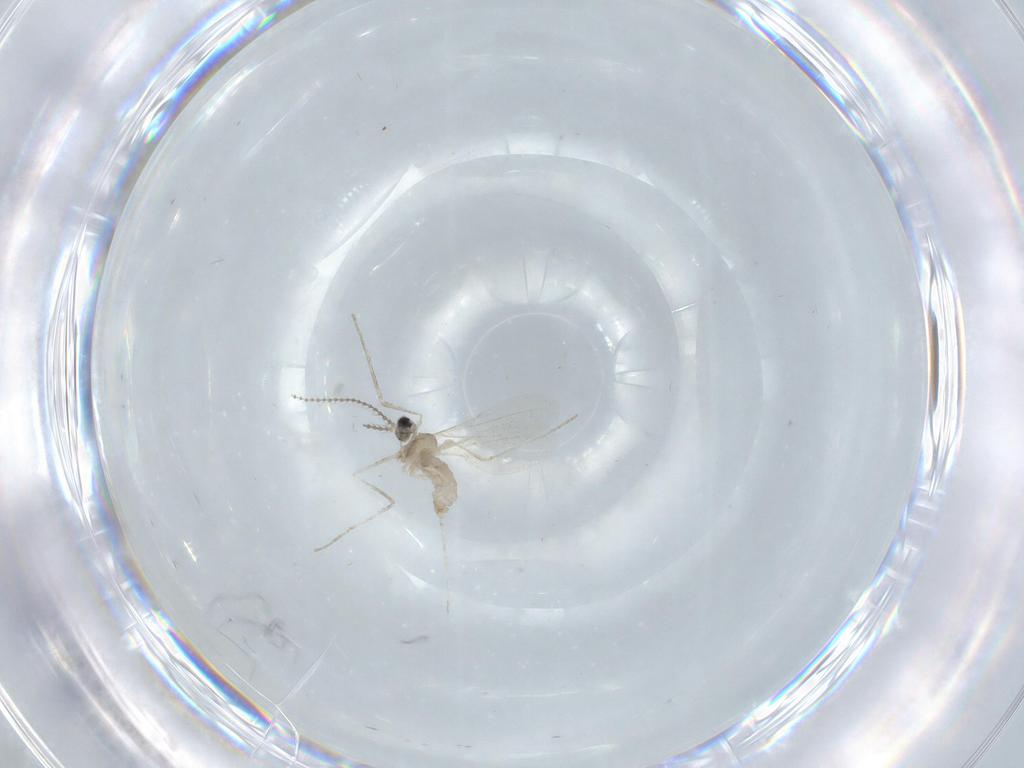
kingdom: Animalia
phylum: Arthropoda
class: Insecta
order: Diptera
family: Cecidomyiidae
